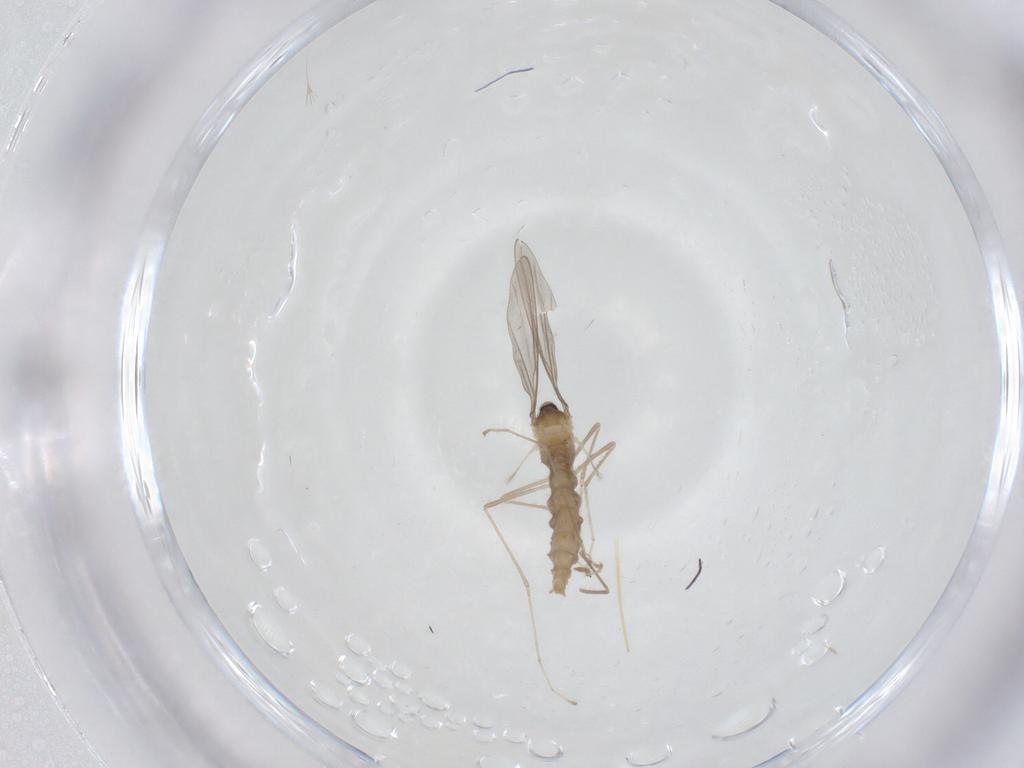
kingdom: Animalia
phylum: Arthropoda
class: Insecta
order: Diptera
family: Cecidomyiidae
